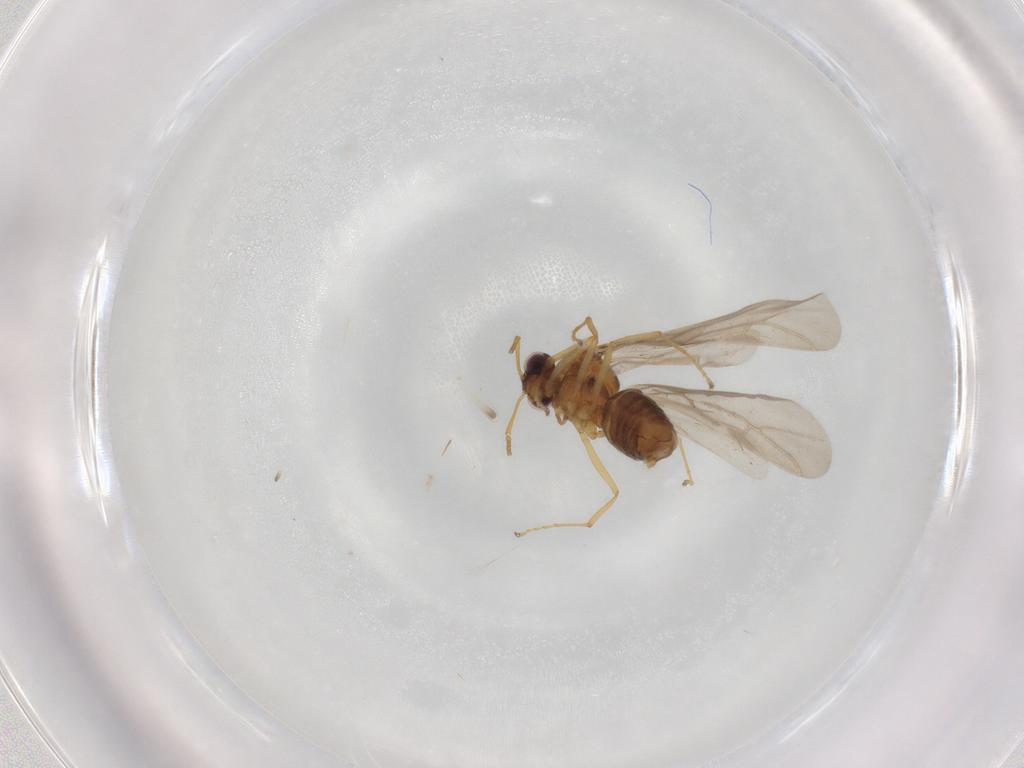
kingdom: Animalia
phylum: Arthropoda
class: Insecta
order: Hymenoptera
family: Formicidae
